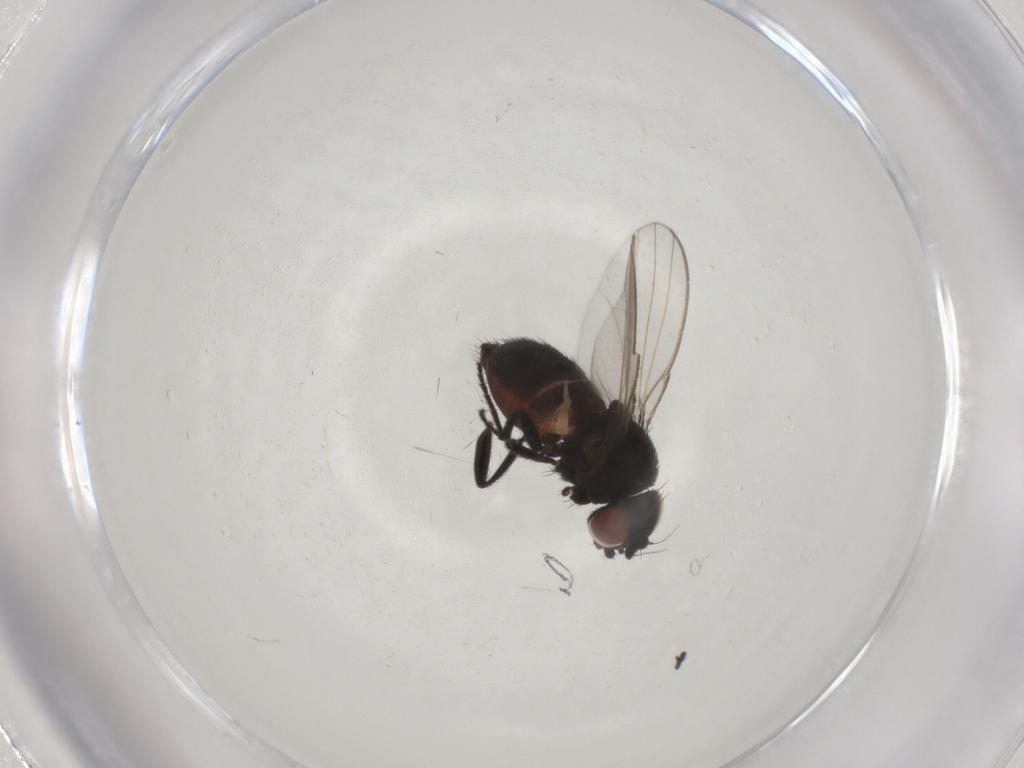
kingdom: Animalia
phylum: Arthropoda
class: Insecta
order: Diptera
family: Milichiidae
